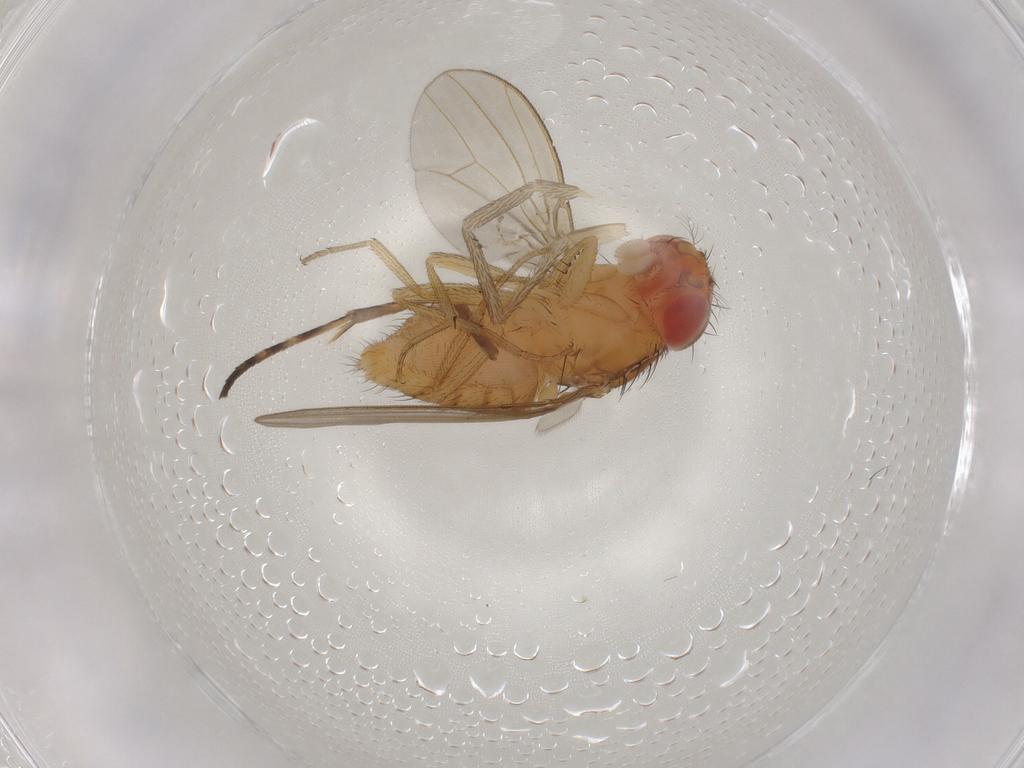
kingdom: Animalia
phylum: Arthropoda
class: Insecta
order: Diptera
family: Drosophilidae
